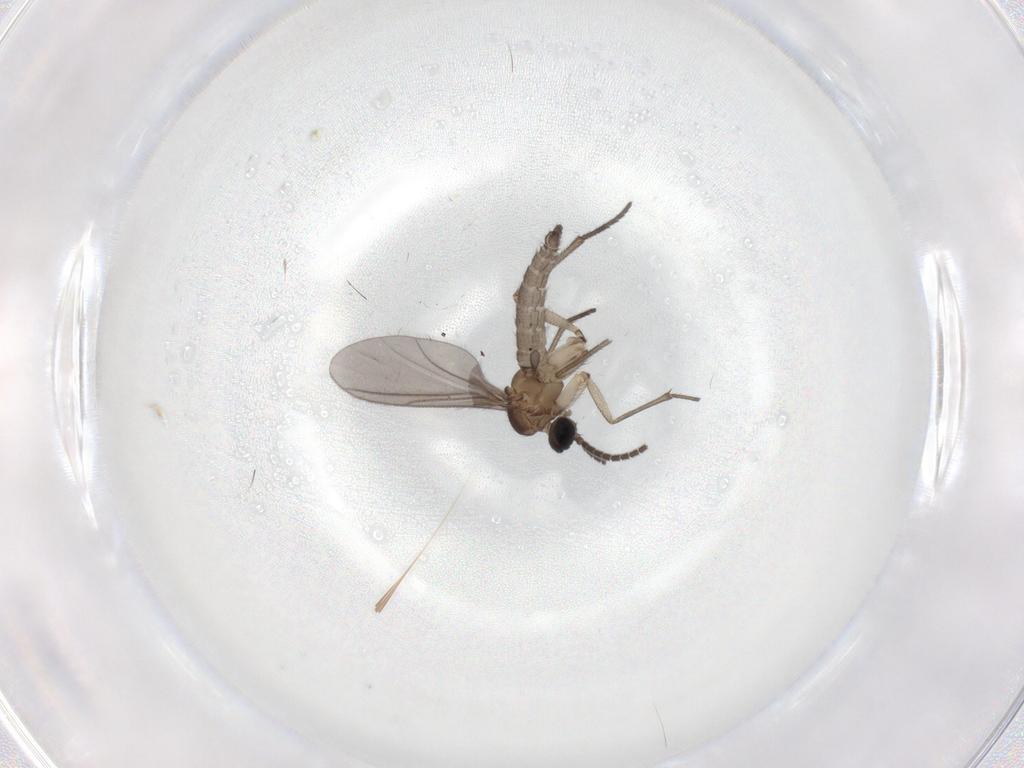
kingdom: Animalia
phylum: Arthropoda
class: Insecta
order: Diptera
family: Sciaridae
